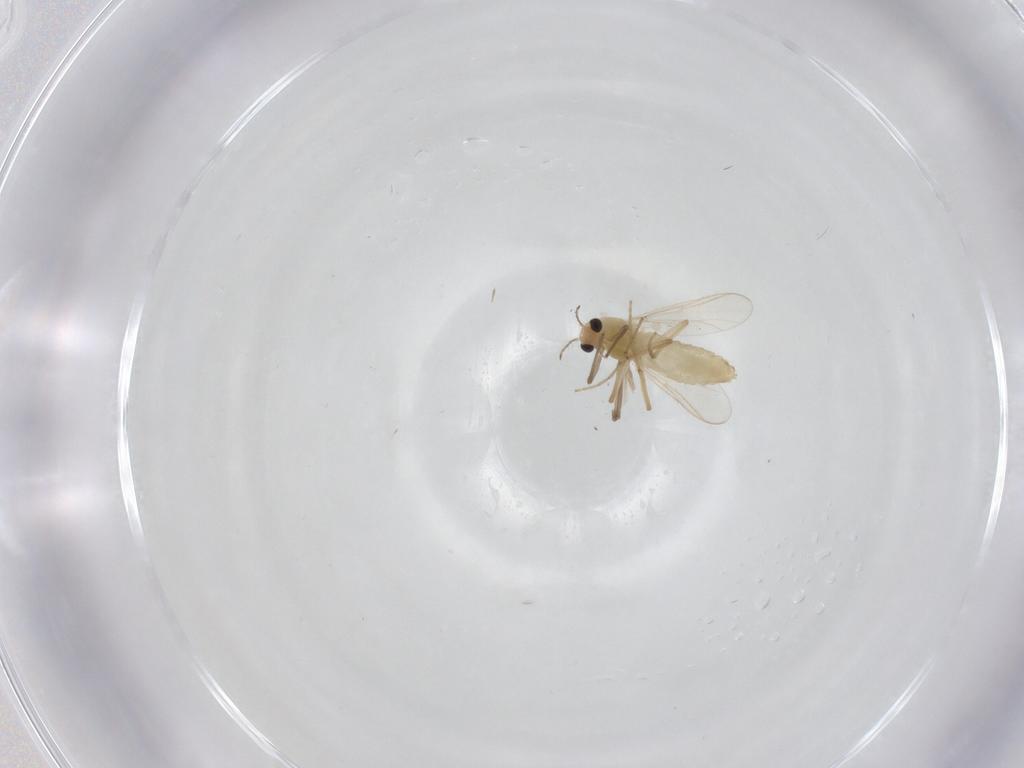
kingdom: Animalia
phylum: Arthropoda
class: Insecta
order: Diptera
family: Chironomidae
